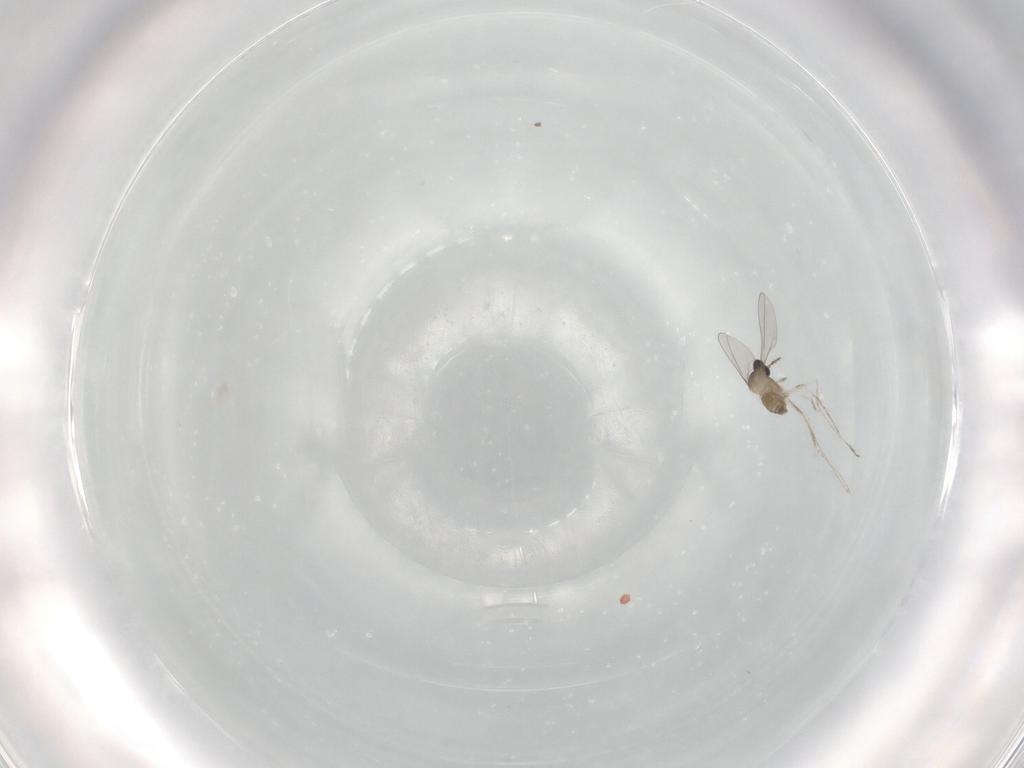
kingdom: Animalia
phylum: Arthropoda
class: Insecta
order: Diptera
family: Cecidomyiidae
